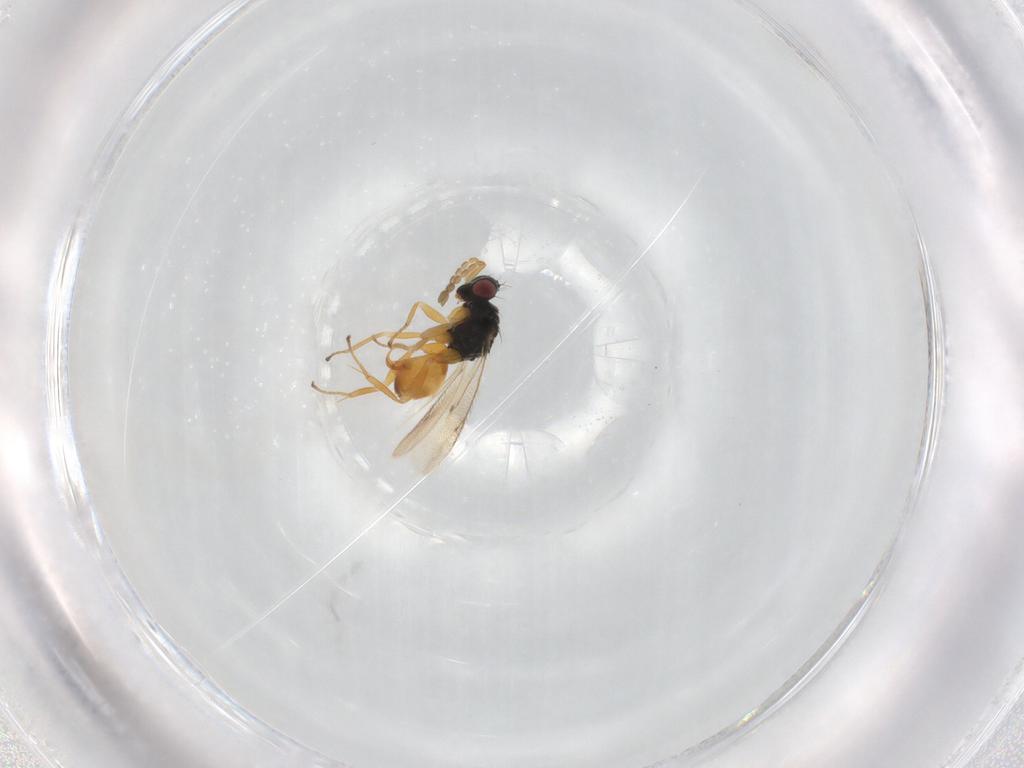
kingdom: Animalia
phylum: Arthropoda
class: Insecta
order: Hymenoptera
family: Eulophidae
